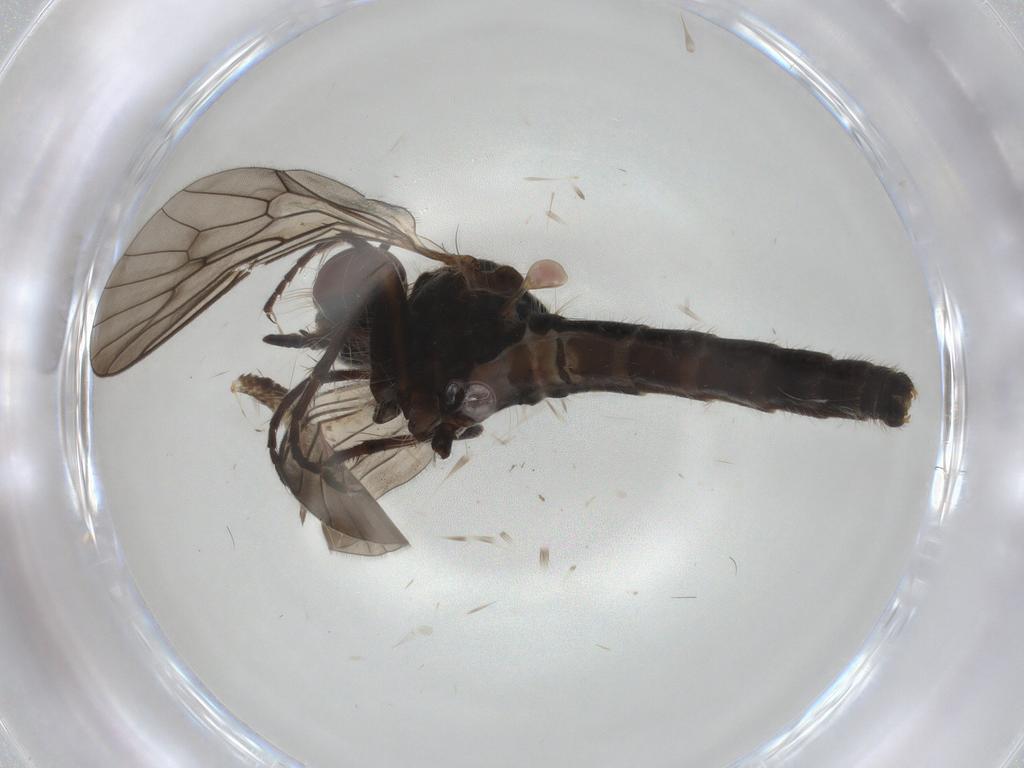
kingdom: Animalia
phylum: Arthropoda
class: Insecta
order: Diptera
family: Asilidae
